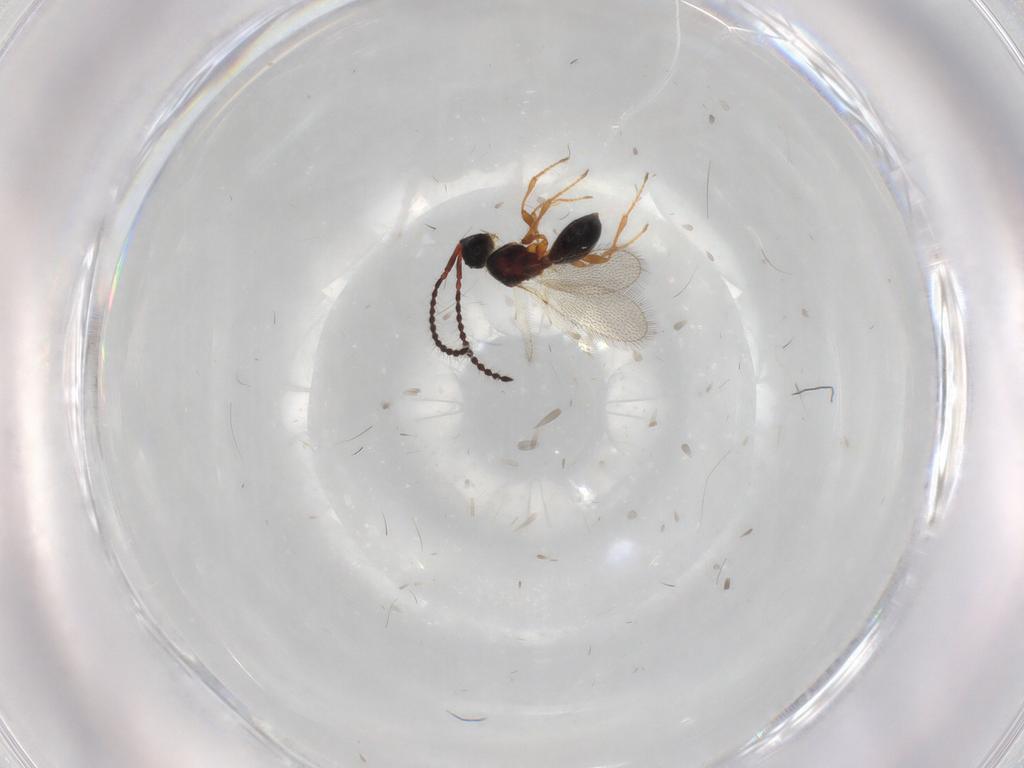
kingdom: Animalia
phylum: Arthropoda
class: Insecta
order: Hymenoptera
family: Diapriidae
